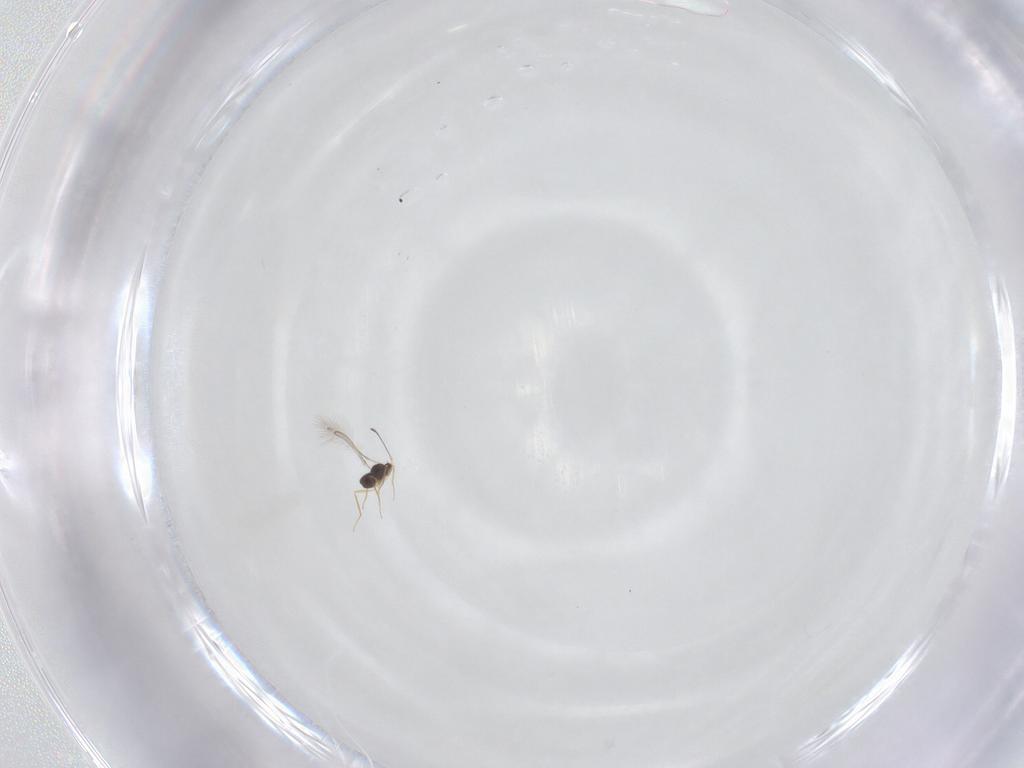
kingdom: Animalia
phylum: Arthropoda
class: Insecta
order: Hymenoptera
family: Mymaridae
